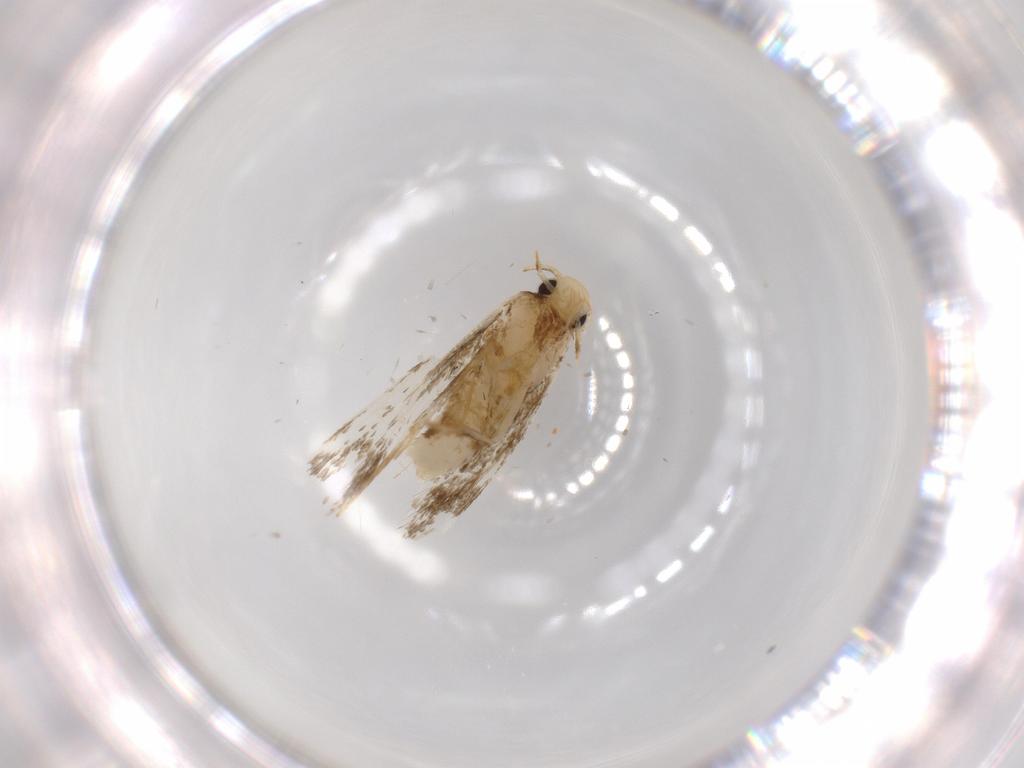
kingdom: Animalia
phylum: Arthropoda
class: Insecta
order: Lepidoptera
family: Tineidae
